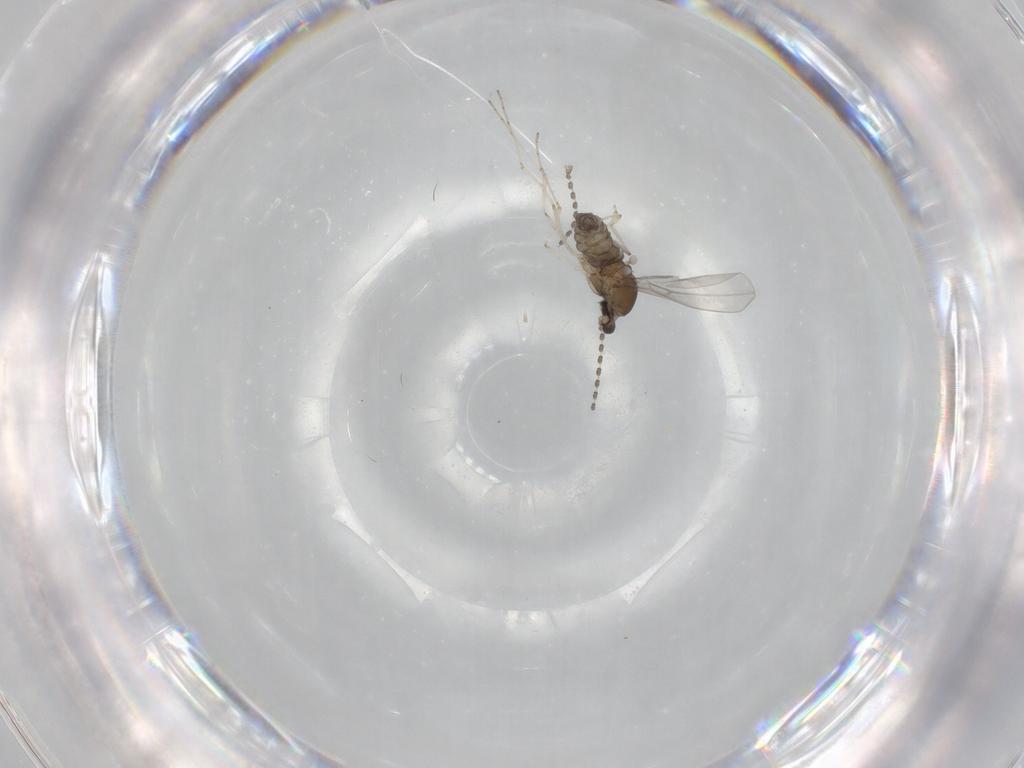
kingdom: Animalia
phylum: Arthropoda
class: Insecta
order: Diptera
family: Cecidomyiidae
